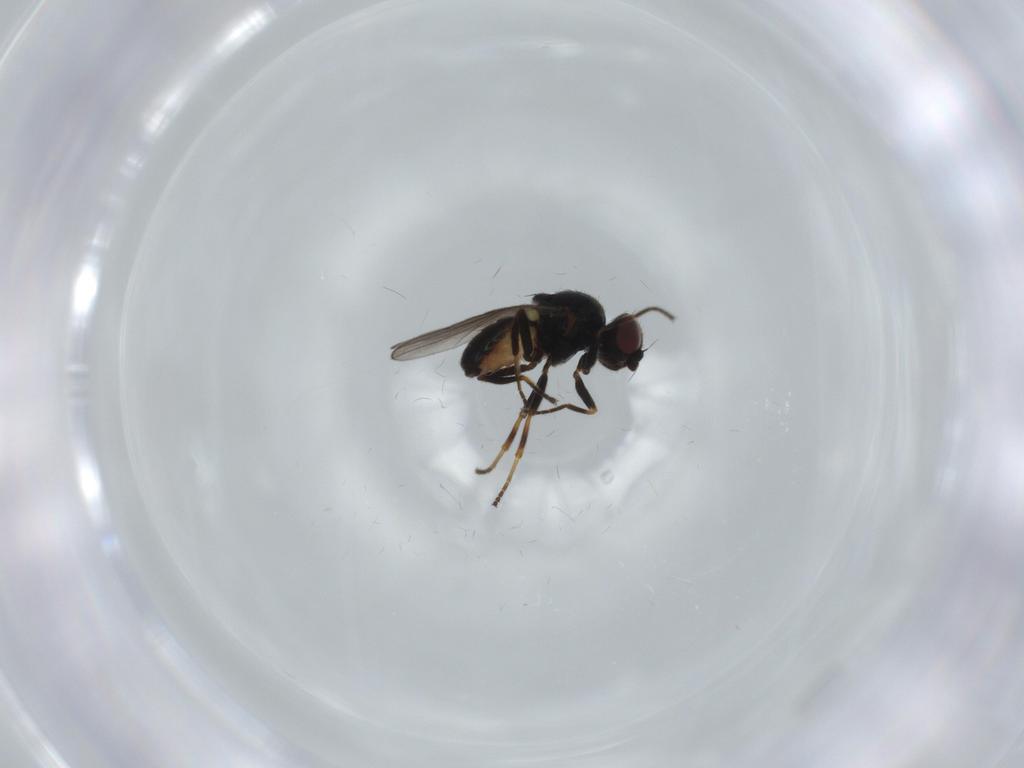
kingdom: Animalia
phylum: Arthropoda
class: Insecta
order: Diptera
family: Chloropidae
